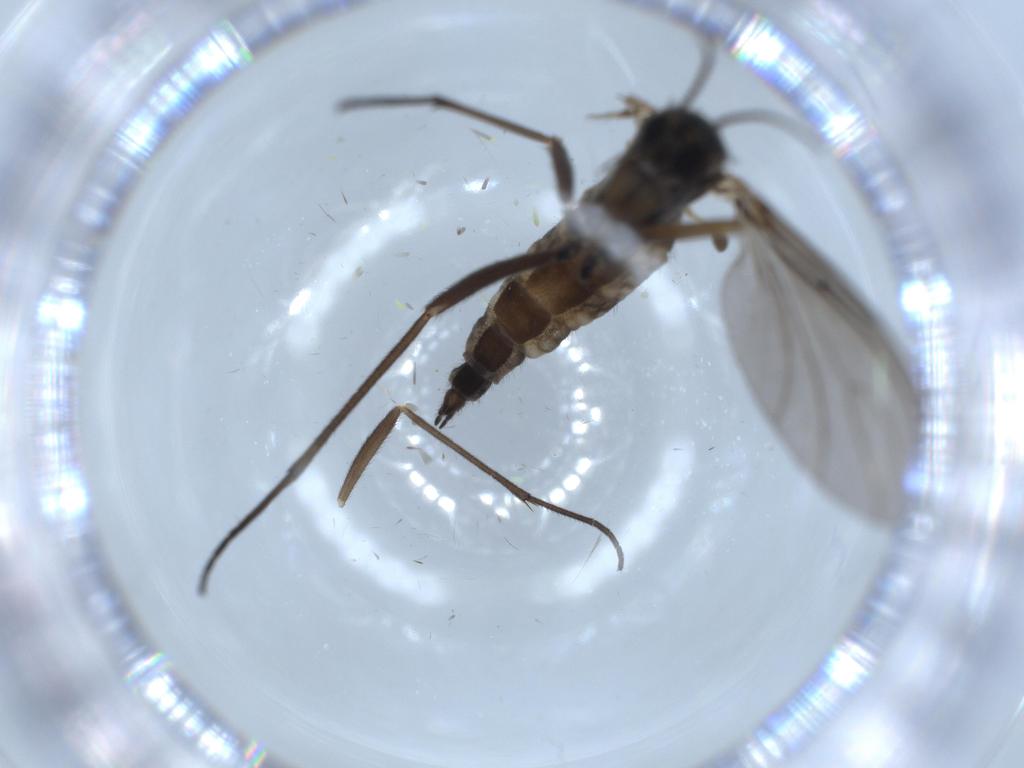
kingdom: Animalia
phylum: Arthropoda
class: Insecta
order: Diptera
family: Sciaridae
